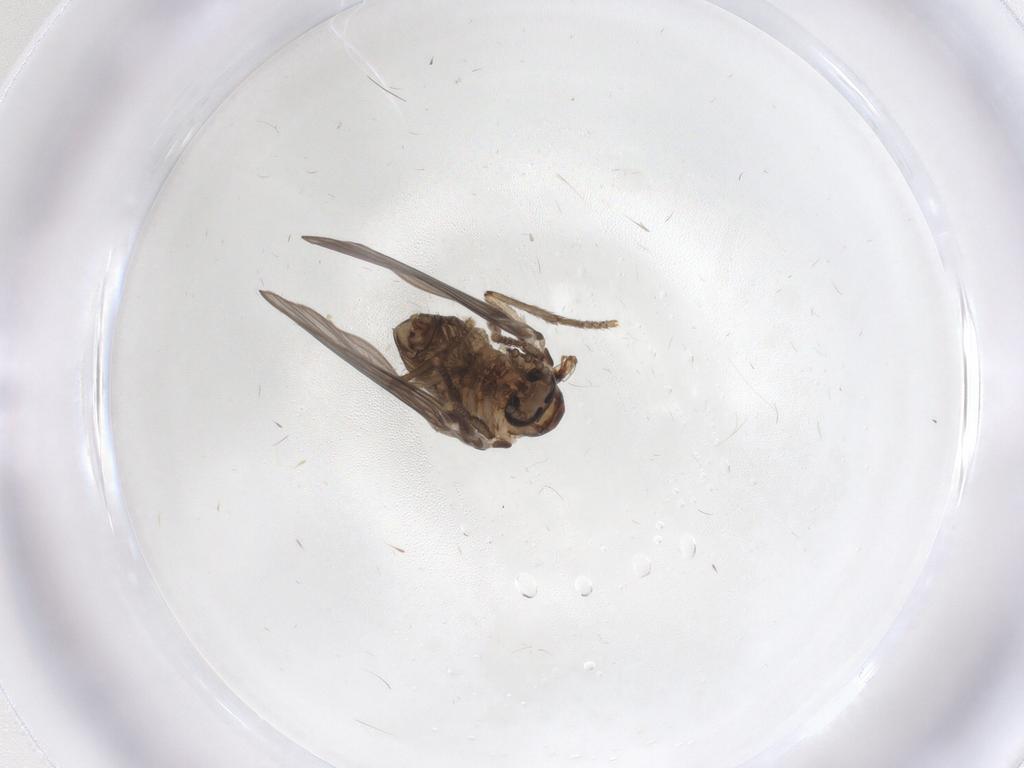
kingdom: Animalia
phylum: Arthropoda
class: Insecta
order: Diptera
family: Psychodidae
